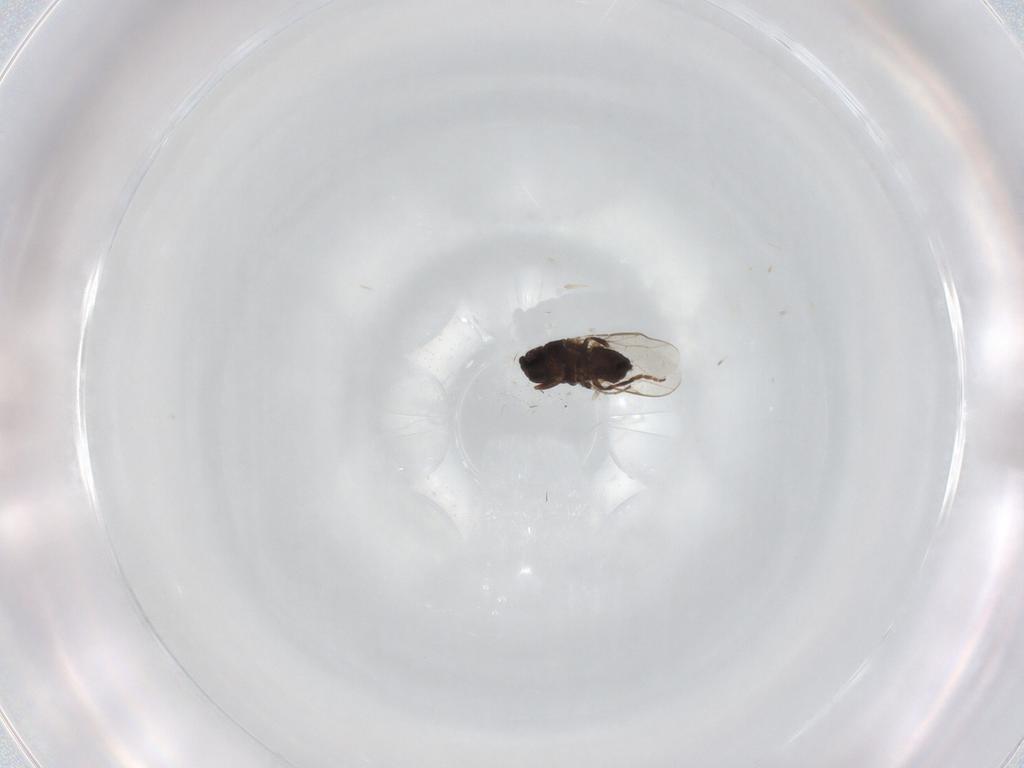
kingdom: Animalia
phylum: Arthropoda
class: Insecta
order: Diptera
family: Sphaeroceridae
